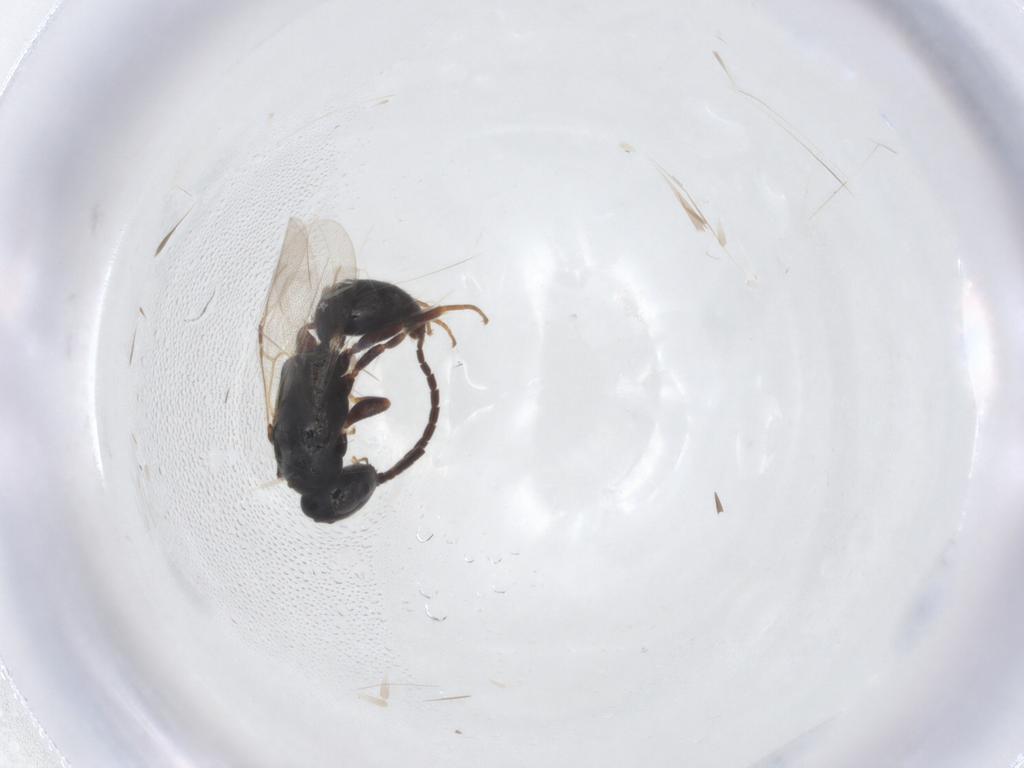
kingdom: Animalia
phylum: Arthropoda
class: Insecta
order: Hymenoptera
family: Bethylidae
